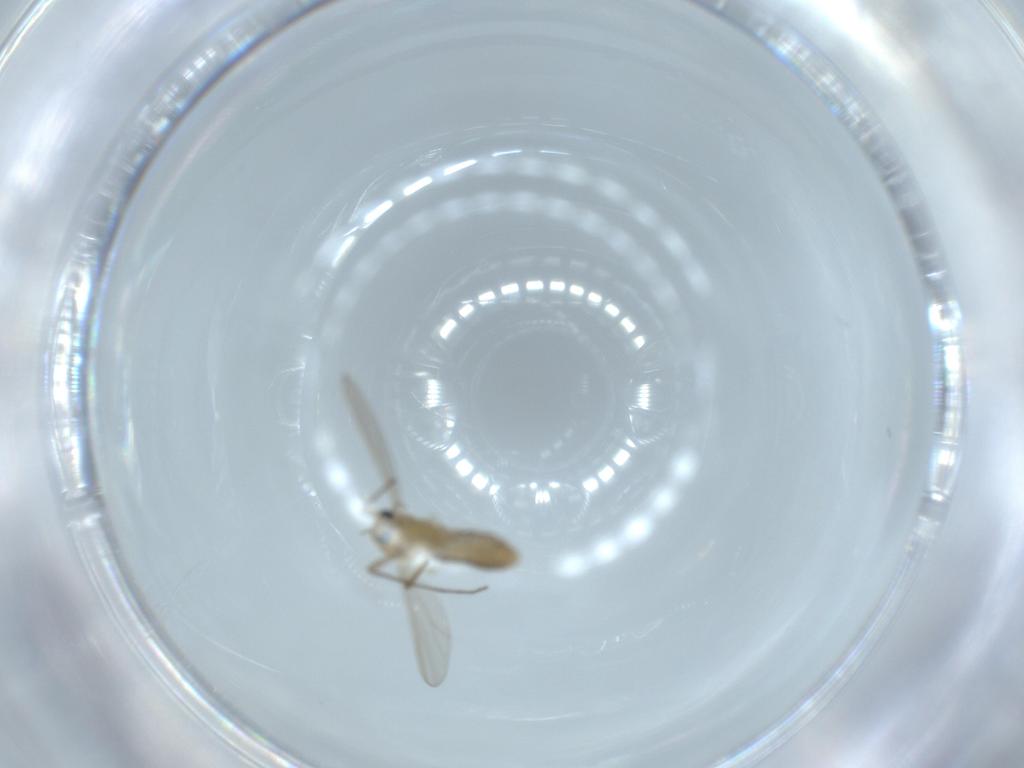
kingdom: Animalia
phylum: Arthropoda
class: Insecta
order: Diptera
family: Chironomidae
